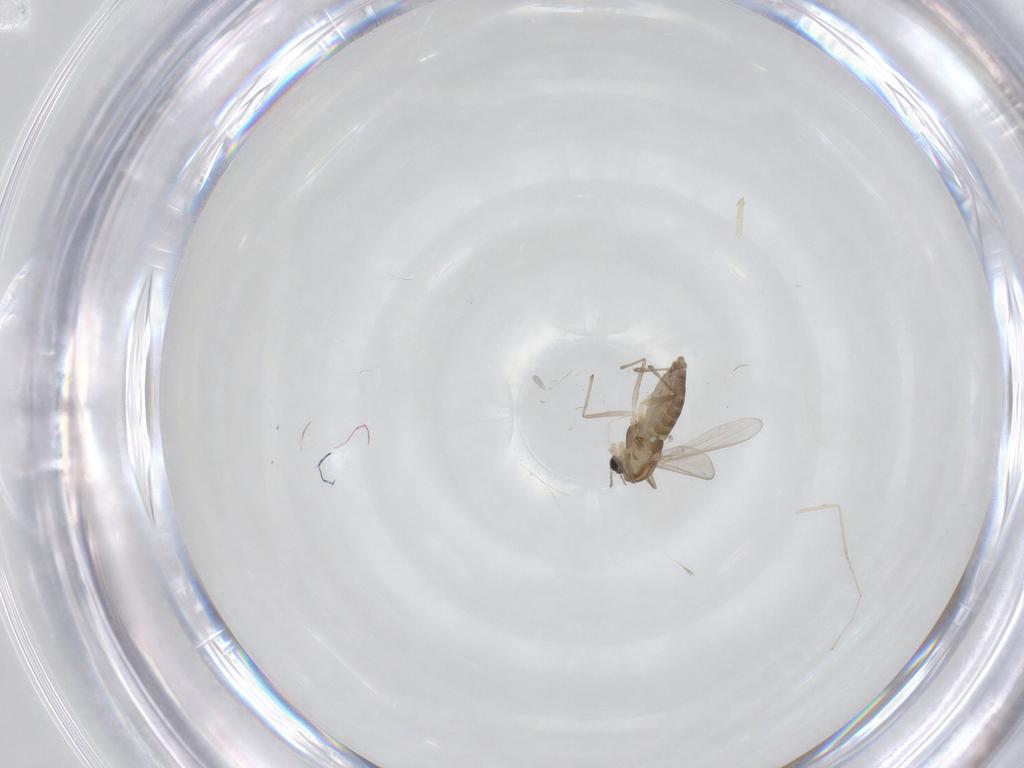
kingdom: Animalia
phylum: Arthropoda
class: Insecta
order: Diptera
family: Chironomidae
